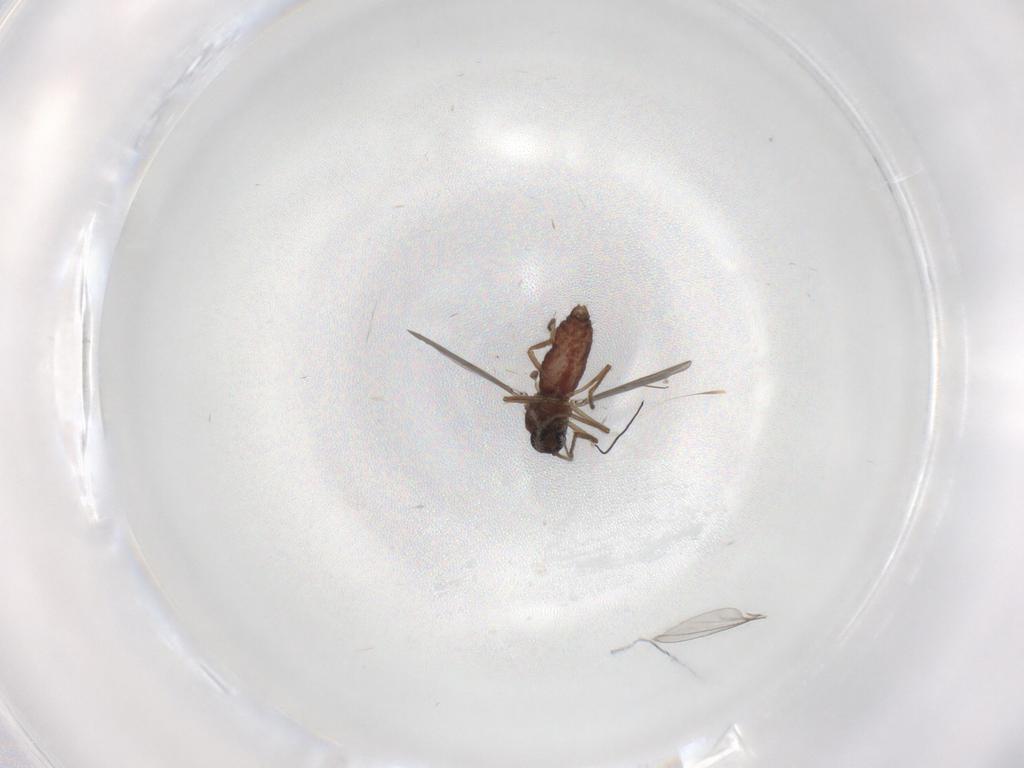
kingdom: Animalia
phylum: Arthropoda
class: Insecta
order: Diptera
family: Ceratopogonidae
